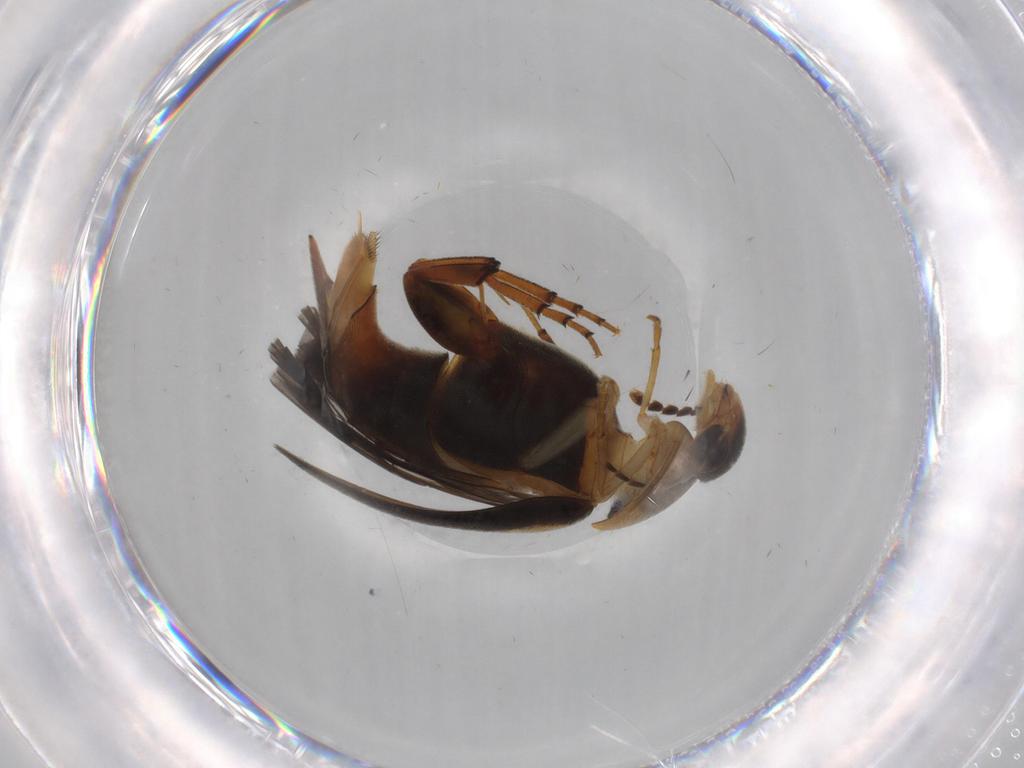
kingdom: Animalia
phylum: Arthropoda
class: Insecta
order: Coleoptera
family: Mordellidae
